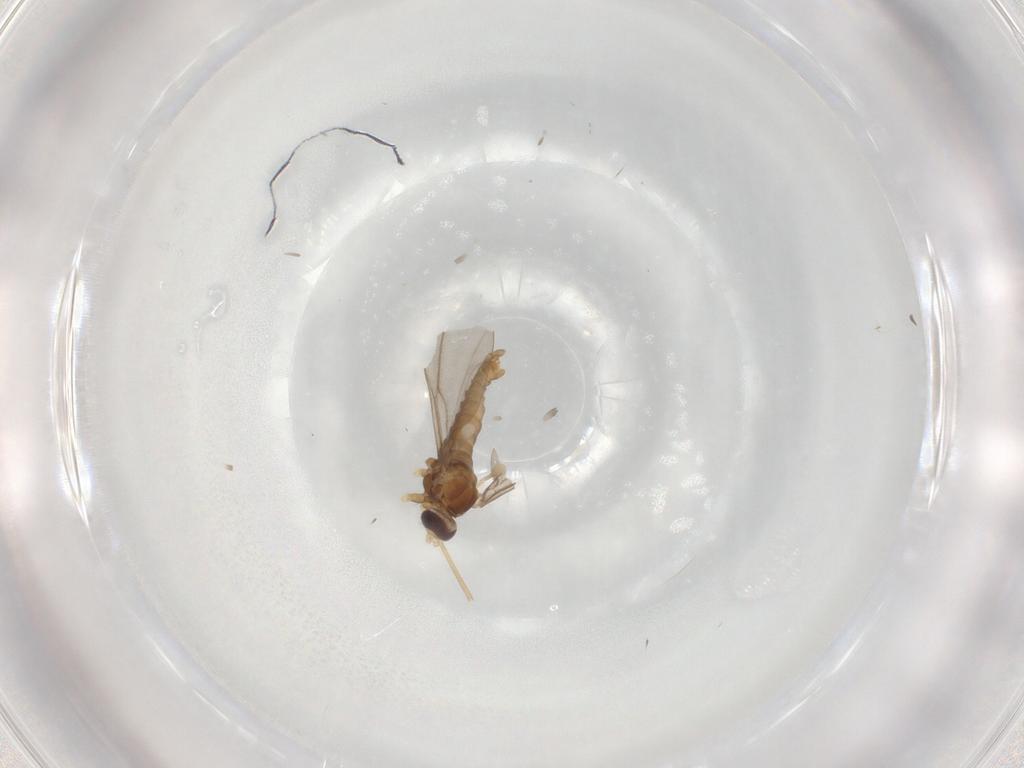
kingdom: Animalia
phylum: Arthropoda
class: Insecta
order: Diptera
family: Cecidomyiidae
